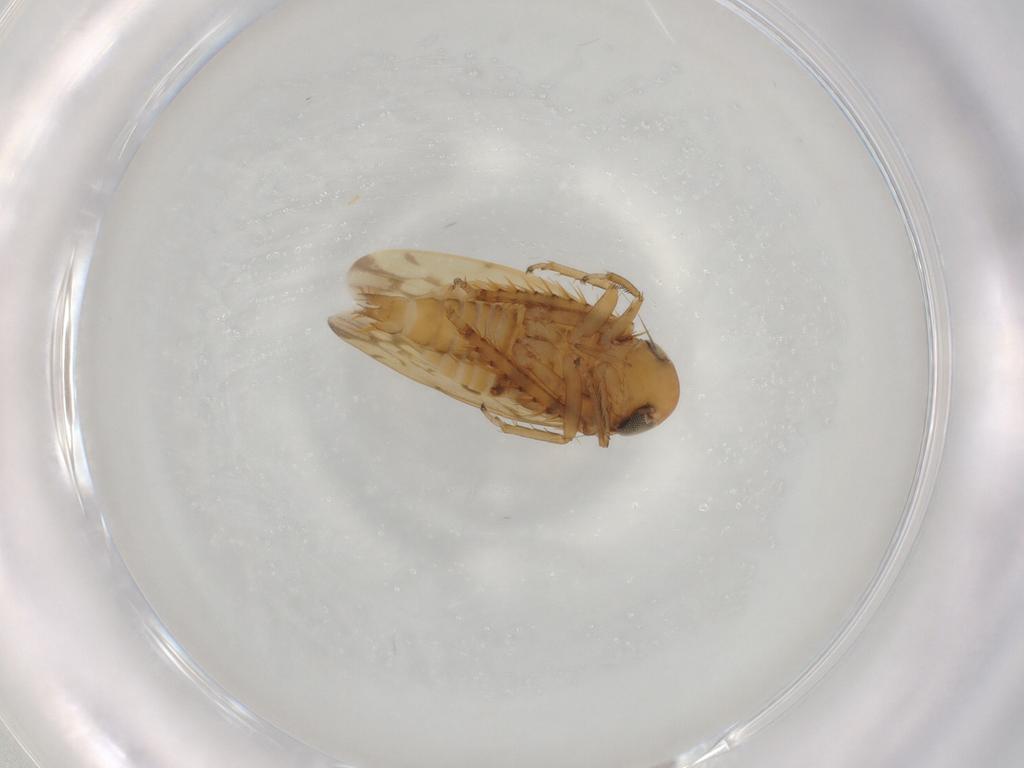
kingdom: Animalia
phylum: Arthropoda
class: Insecta
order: Hemiptera
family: Cicadellidae
